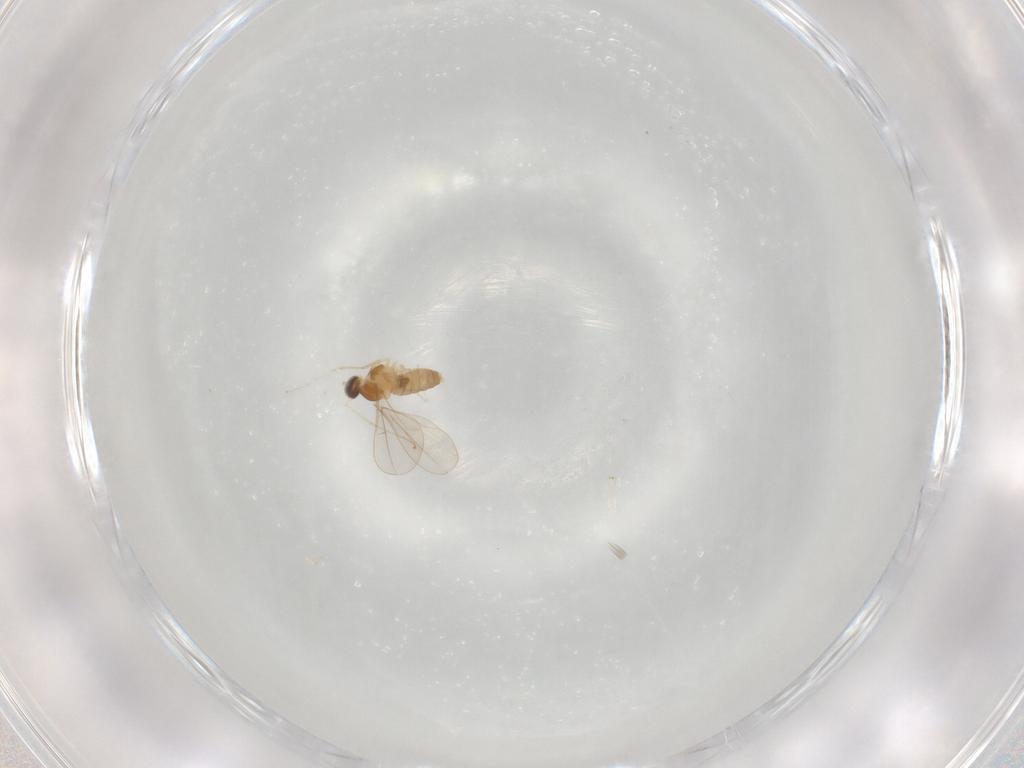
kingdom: Animalia
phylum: Arthropoda
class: Insecta
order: Diptera
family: Cecidomyiidae
